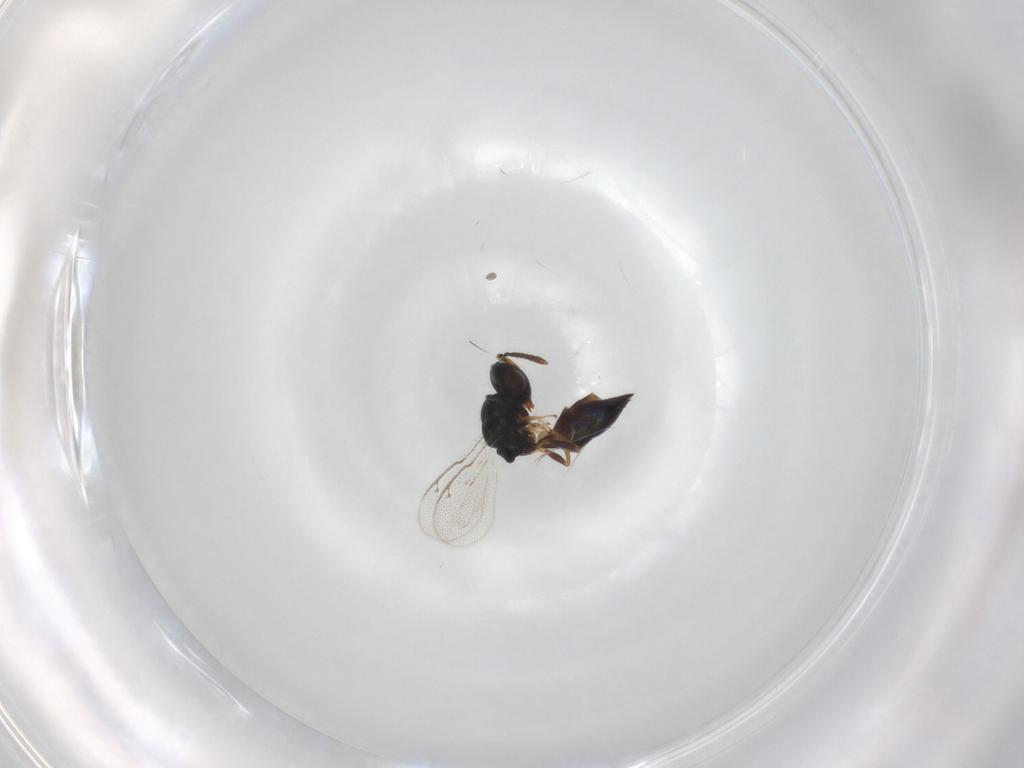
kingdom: Animalia
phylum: Arthropoda
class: Insecta
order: Hymenoptera
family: Pteromalidae
